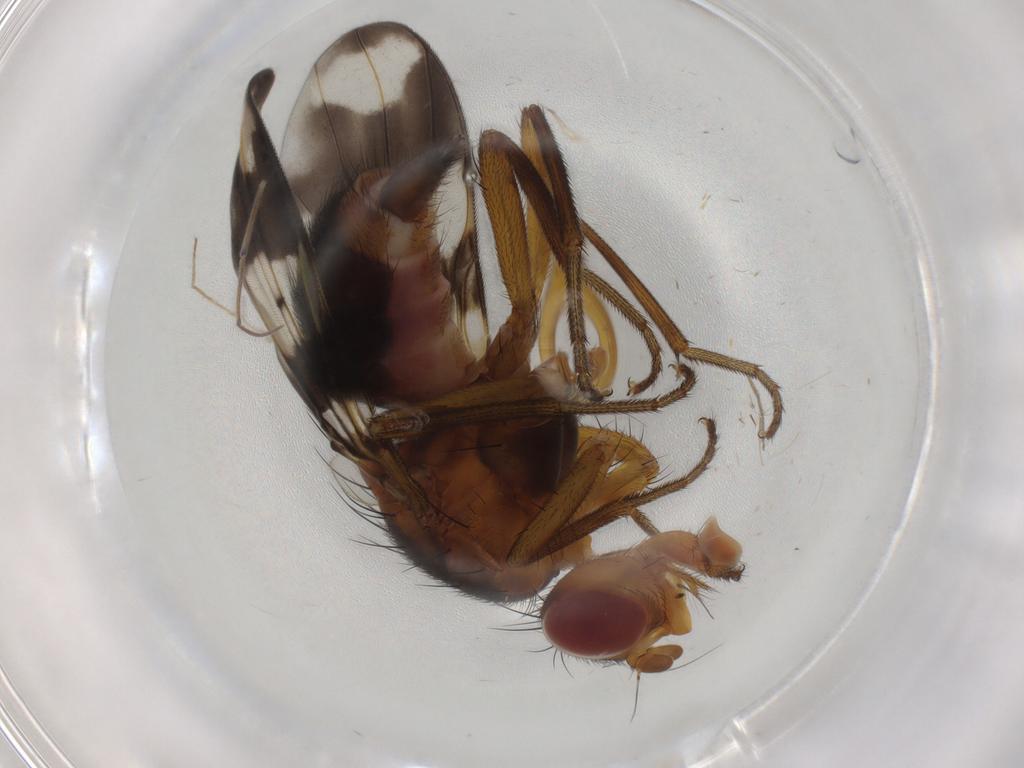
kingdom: Animalia
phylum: Arthropoda
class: Insecta
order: Diptera
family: Richardiidae
